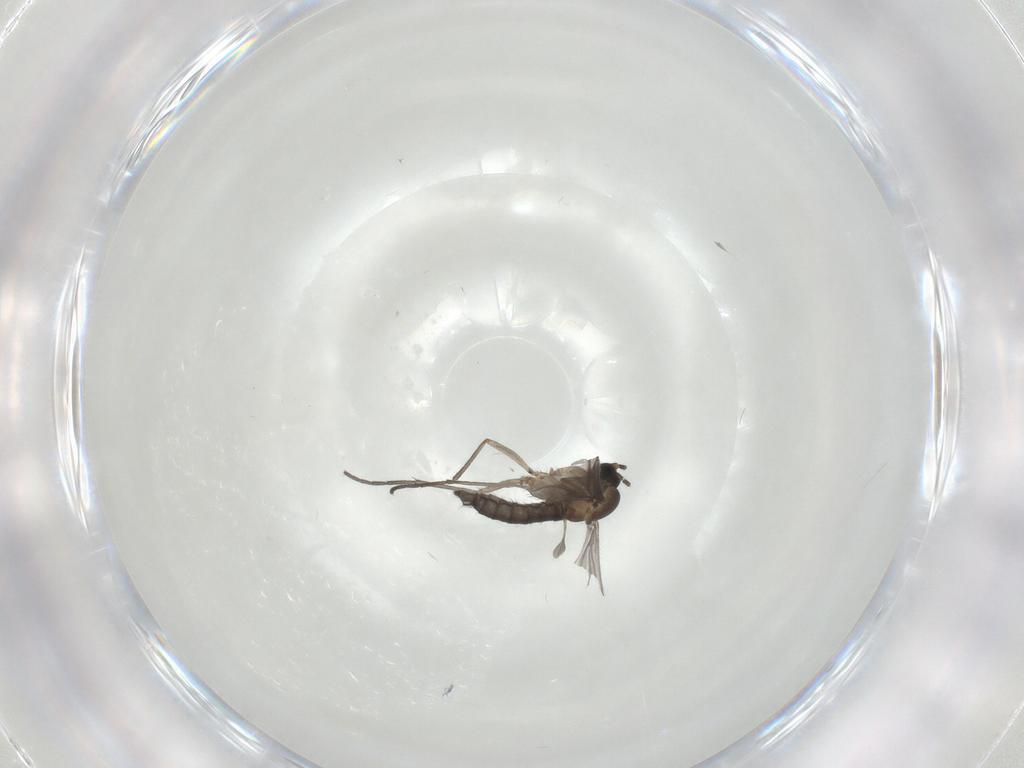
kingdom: Animalia
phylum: Arthropoda
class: Insecta
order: Diptera
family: Sciaridae
